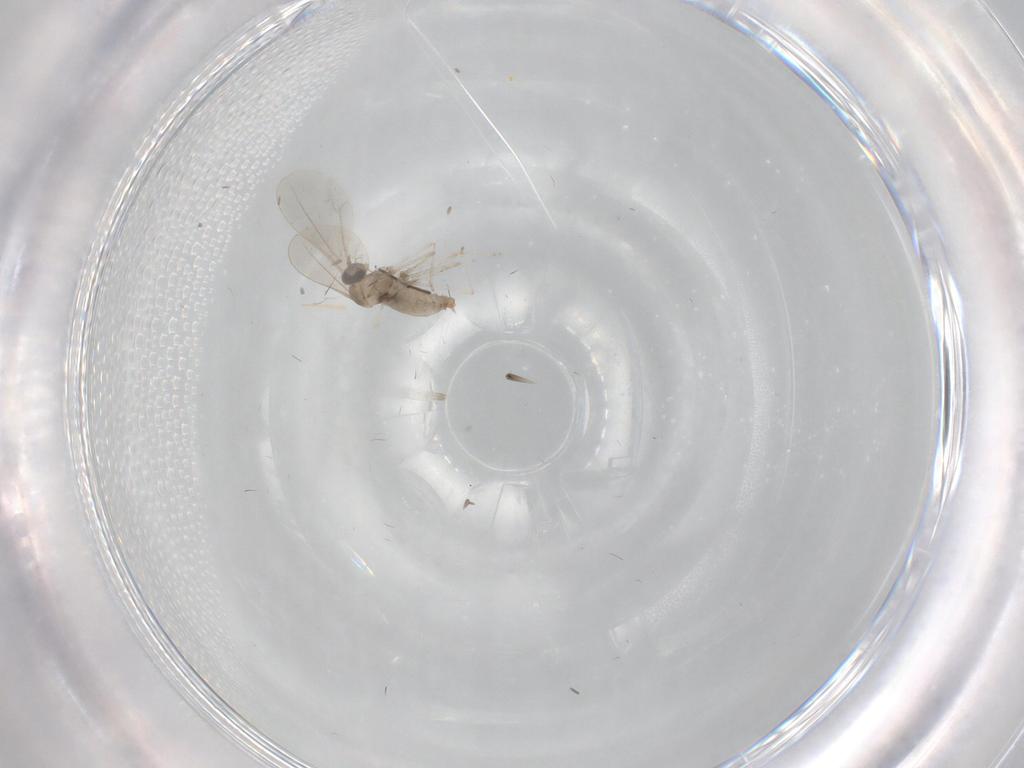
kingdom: Animalia
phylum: Arthropoda
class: Insecta
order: Diptera
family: Cecidomyiidae
